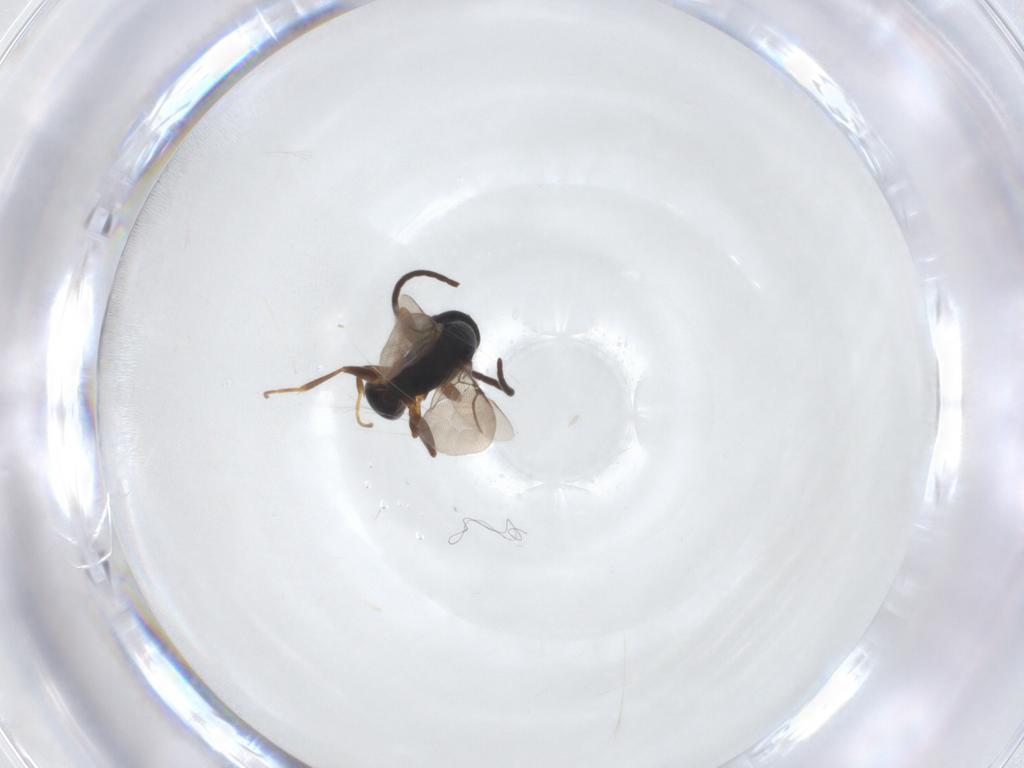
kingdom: Animalia
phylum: Arthropoda
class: Insecta
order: Hymenoptera
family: Bethylidae
